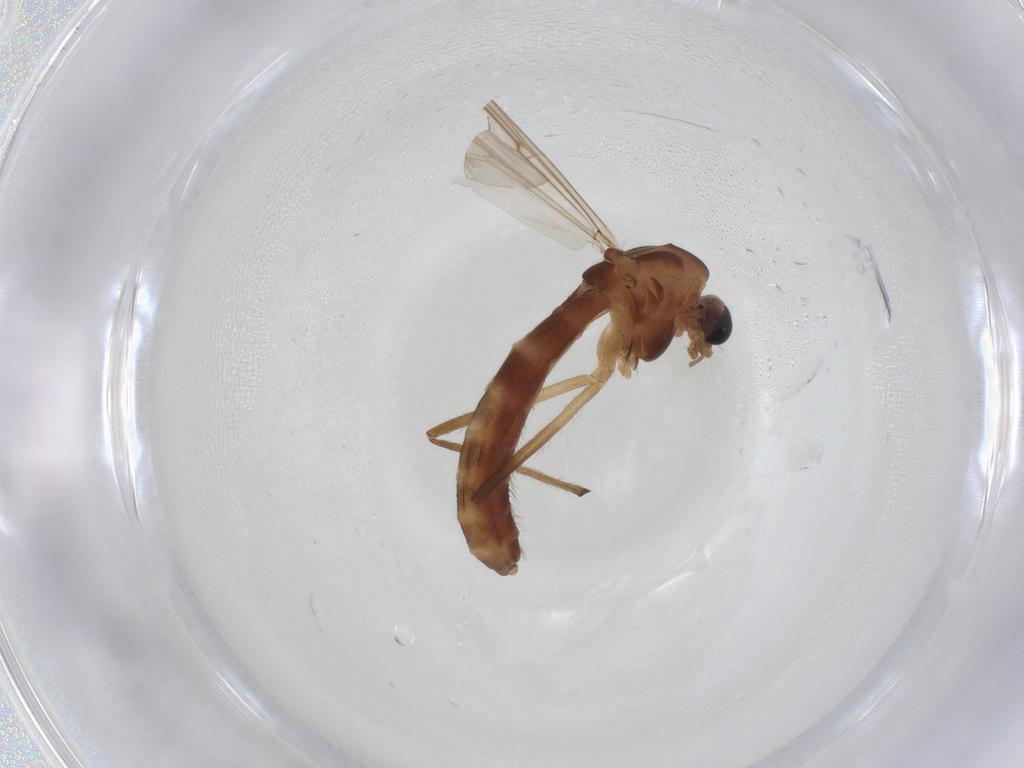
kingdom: Animalia
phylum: Arthropoda
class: Insecta
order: Diptera
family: Chironomidae
